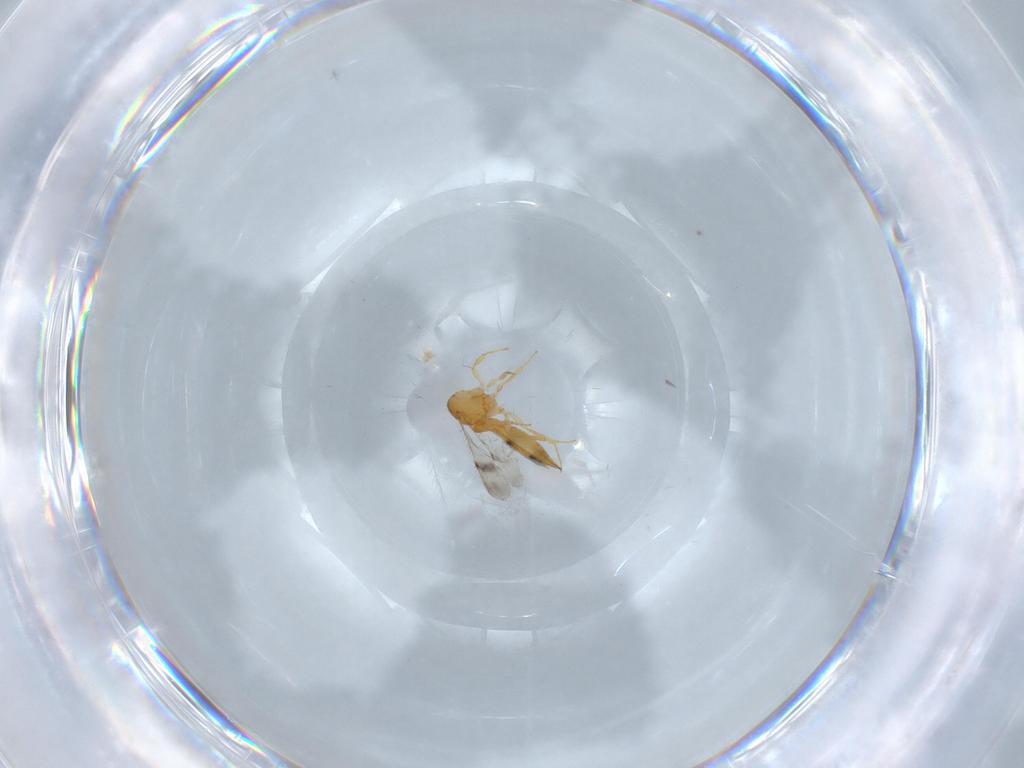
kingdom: Animalia
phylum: Arthropoda
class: Insecta
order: Hymenoptera
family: Scelionidae
